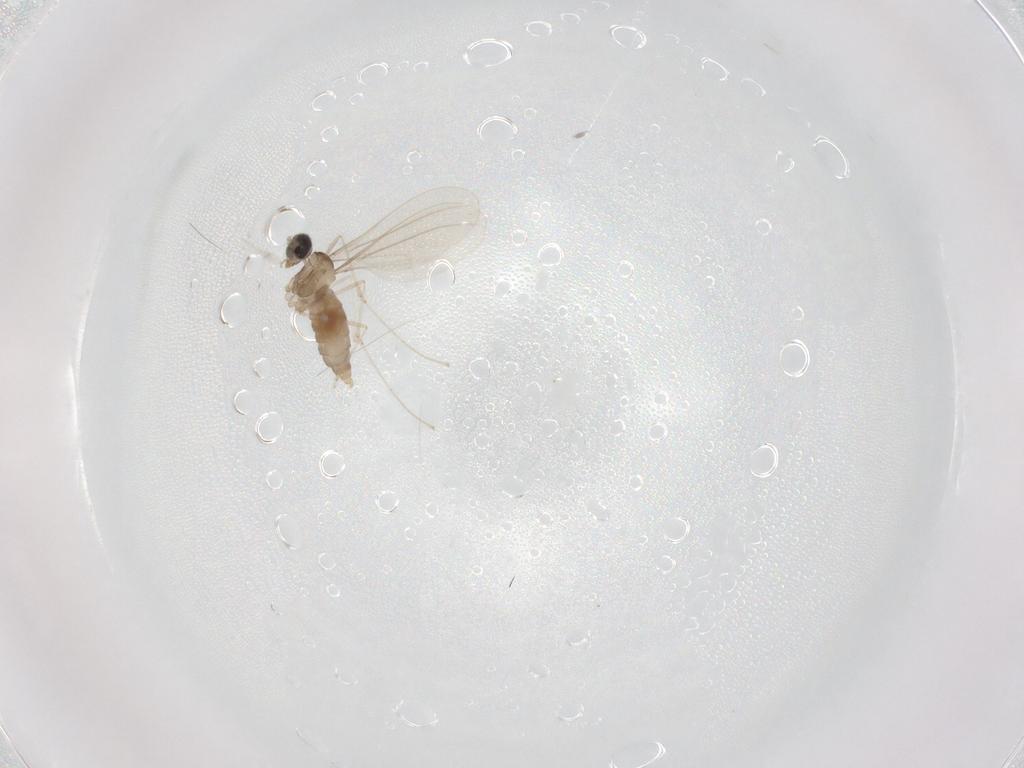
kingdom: Animalia
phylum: Arthropoda
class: Insecta
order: Diptera
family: Cecidomyiidae
